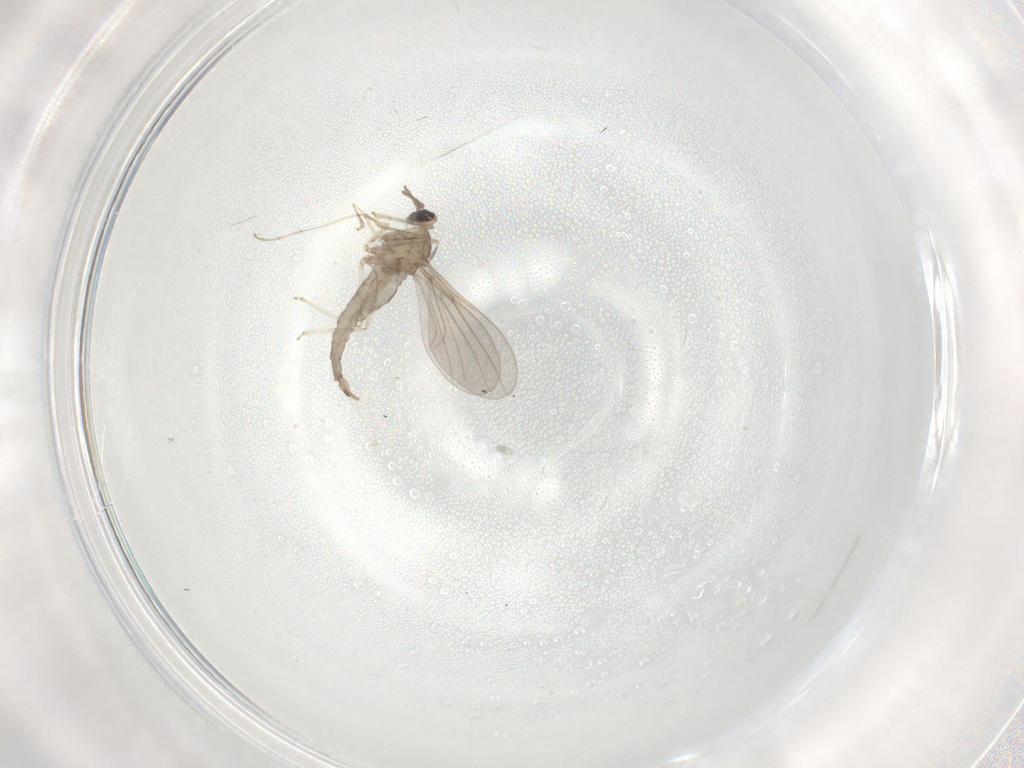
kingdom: Animalia
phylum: Arthropoda
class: Insecta
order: Diptera
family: Cecidomyiidae
